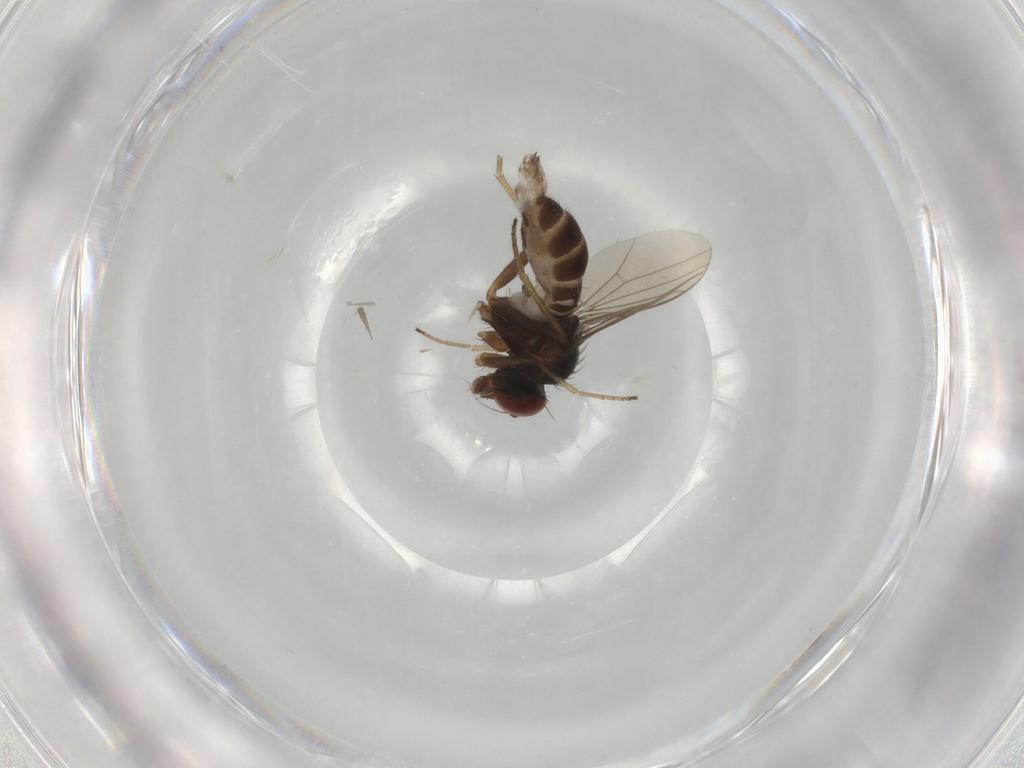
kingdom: Animalia
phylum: Arthropoda
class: Insecta
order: Diptera
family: Dolichopodidae
